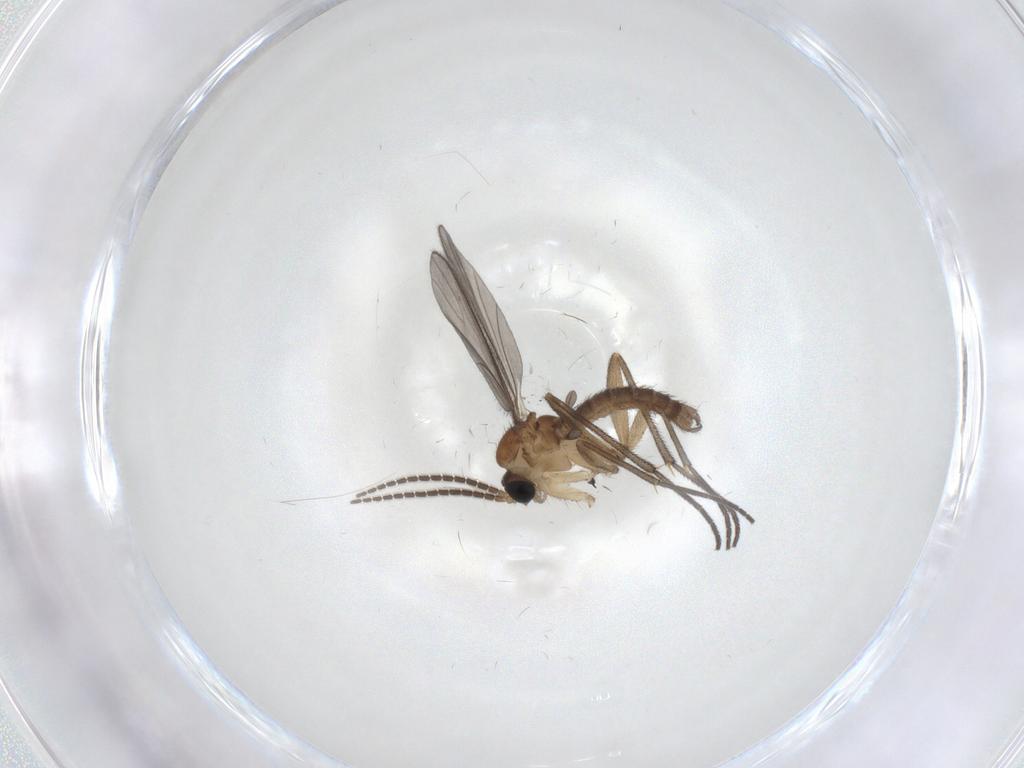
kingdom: Animalia
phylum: Arthropoda
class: Insecta
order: Diptera
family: Sciaridae
